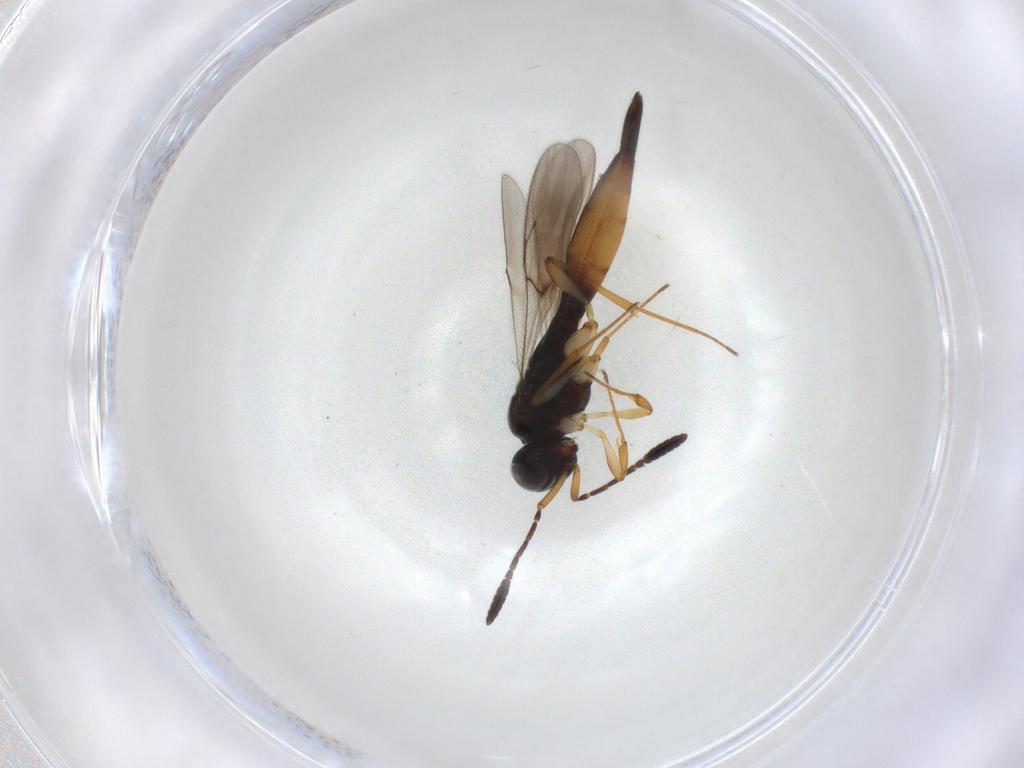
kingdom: Animalia
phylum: Arthropoda
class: Insecta
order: Hymenoptera
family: Scelionidae
